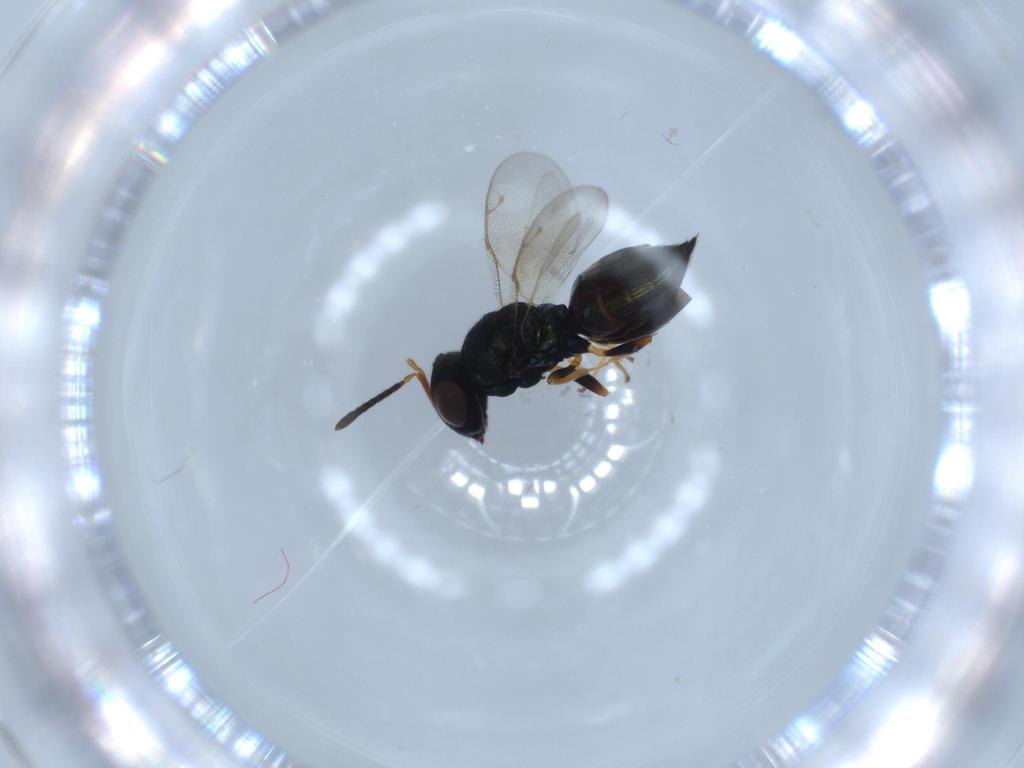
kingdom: Animalia
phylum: Arthropoda
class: Insecta
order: Hymenoptera
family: Pteromalidae
